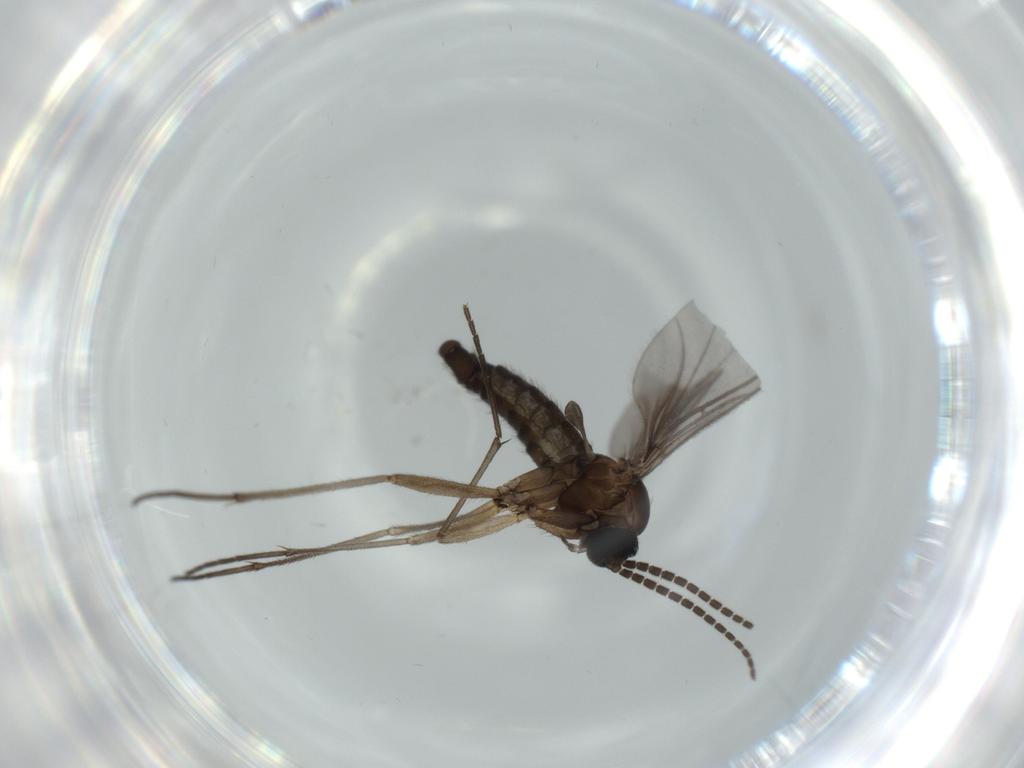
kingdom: Animalia
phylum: Arthropoda
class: Insecta
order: Diptera
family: Sciaridae
